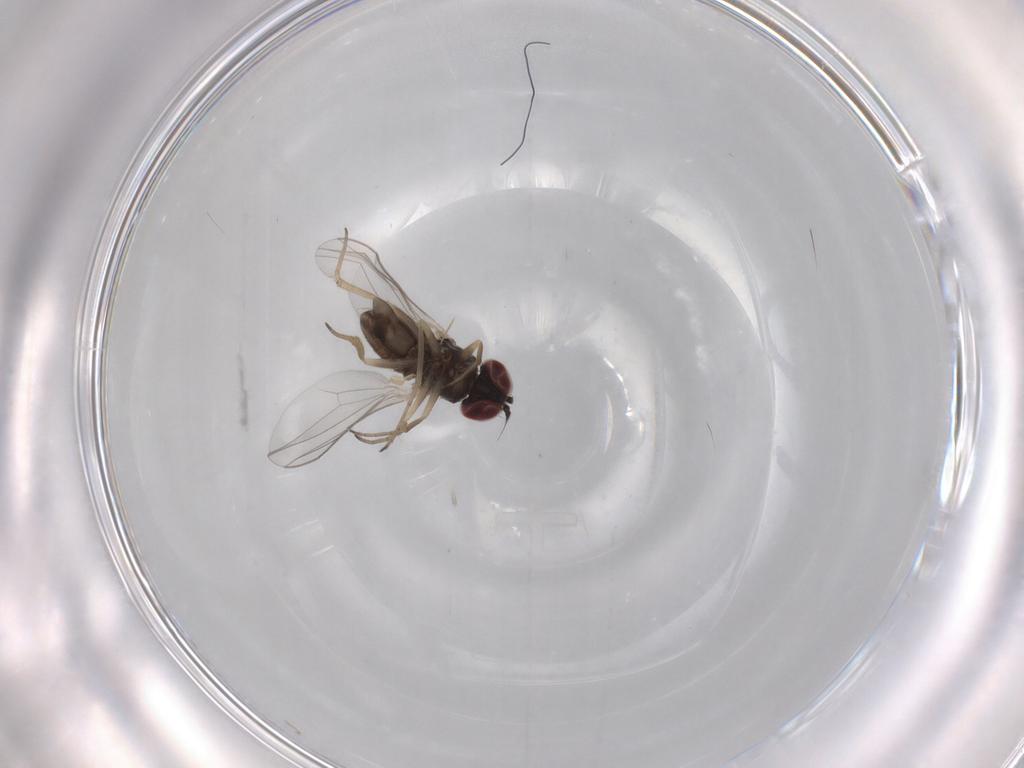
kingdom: Animalia
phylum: Arthropoda
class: Insecta
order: Diptera
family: Dolichopodidae
